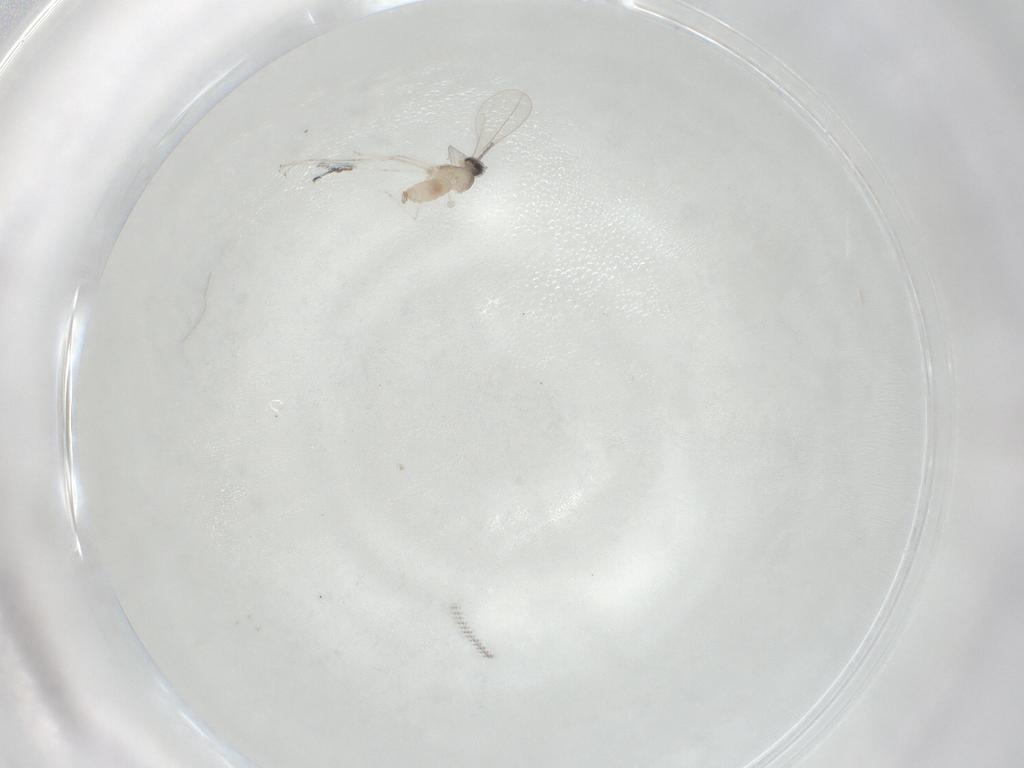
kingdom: Animalia
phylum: Arthropoda
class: Insecta
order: Diptera
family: Cecidomyiidae
